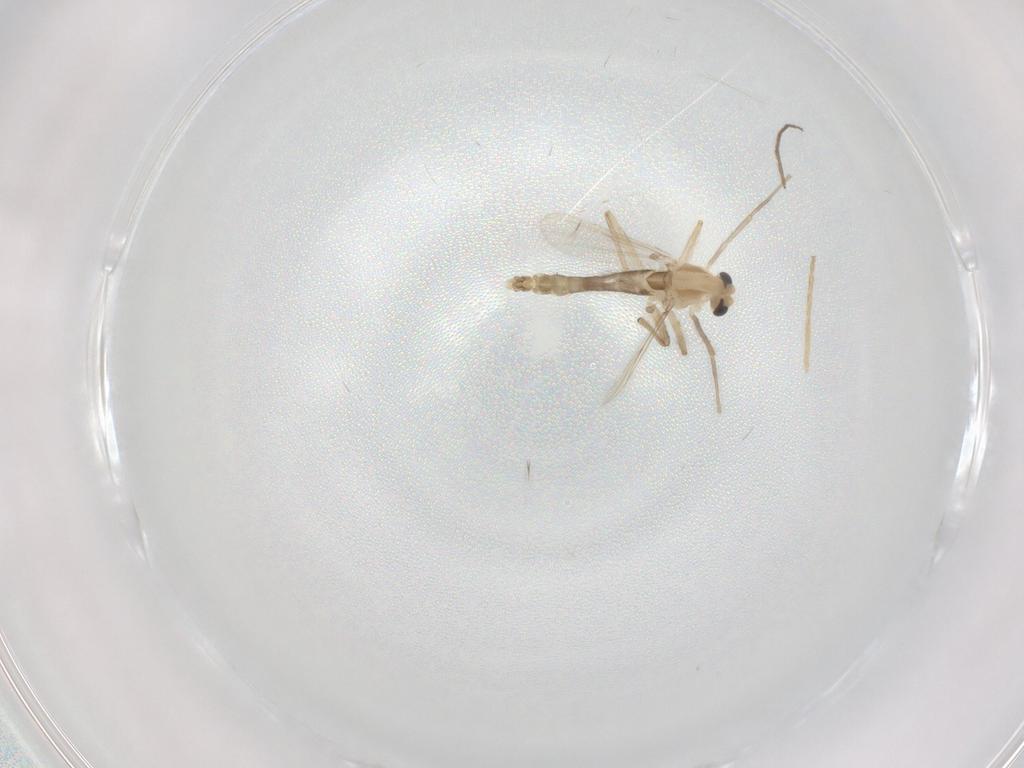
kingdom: Animalia
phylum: Arthropoda
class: Insecta
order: Diptera
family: Chironomidae
